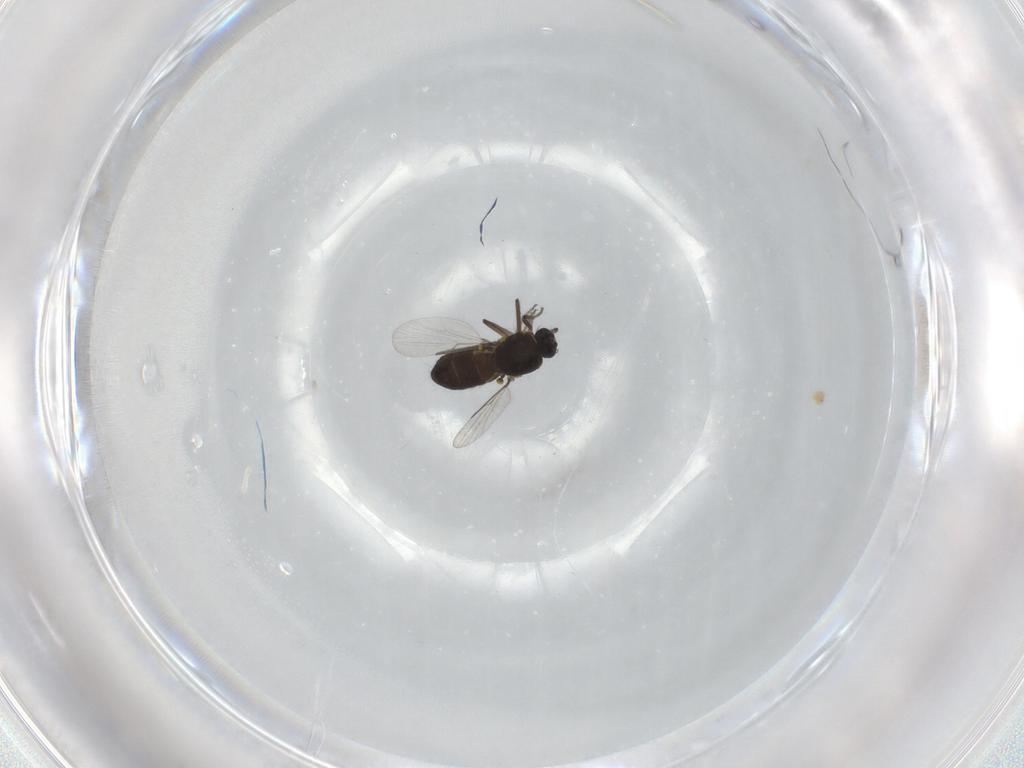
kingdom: Animalia
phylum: Arthropoda
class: Insecta
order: Diptera
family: Ceratopogonidae
